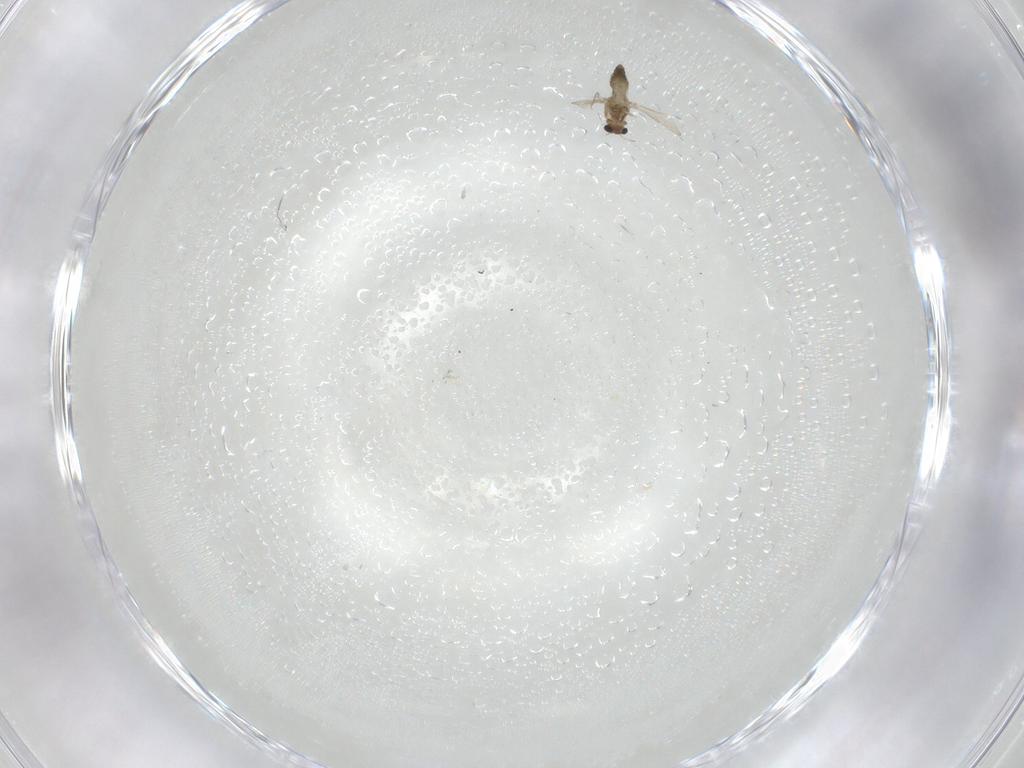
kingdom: Animalia
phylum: Arthropoda
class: Insecta
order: Diptera
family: Chironomidae
